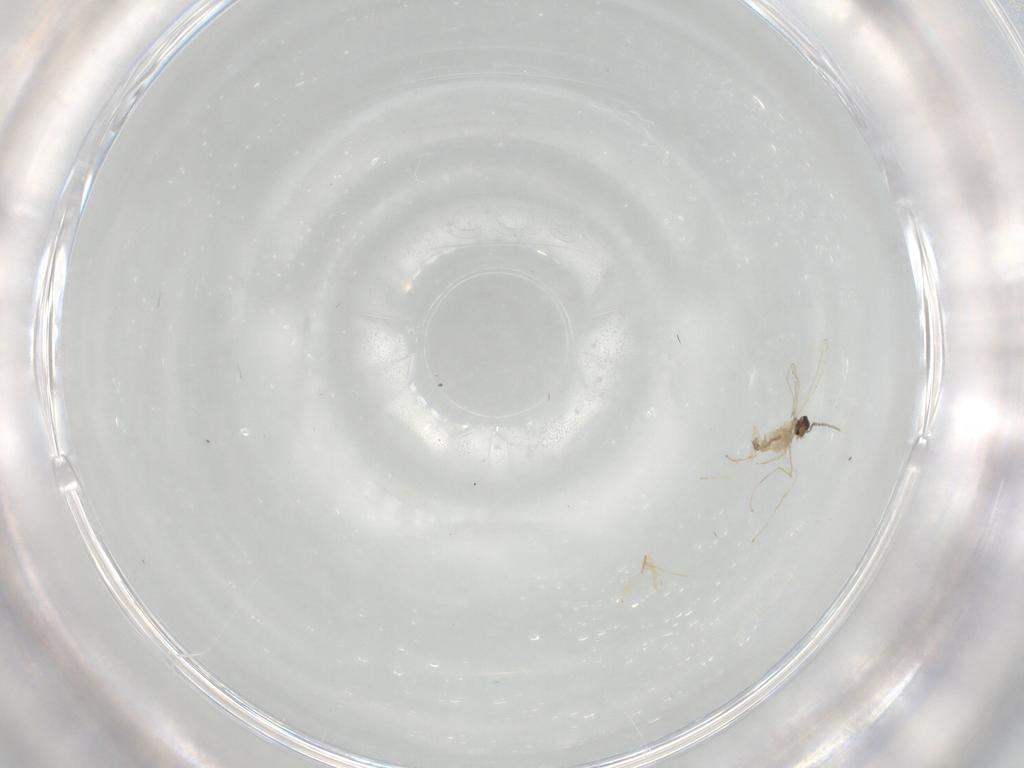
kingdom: Animalia
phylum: Arthropoda
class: Insecta
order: Diptera
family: Cecidomyiidae
